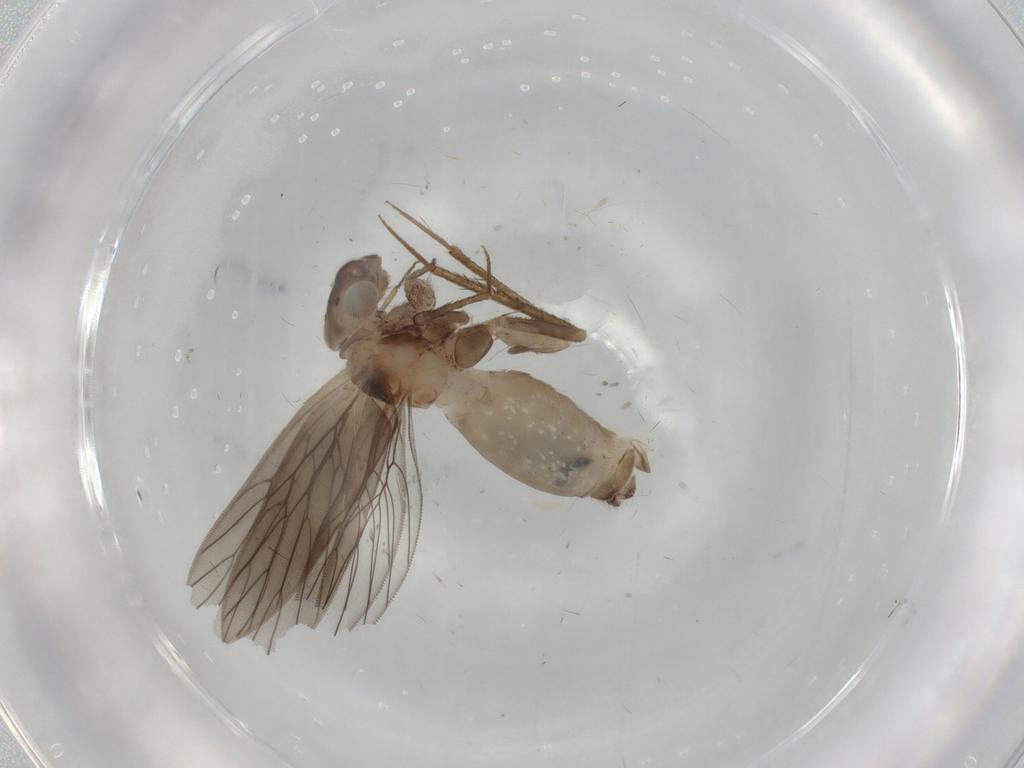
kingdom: Animalia
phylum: Arthropoda
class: Insecta
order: Psocodea
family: Lepidopsocidae
